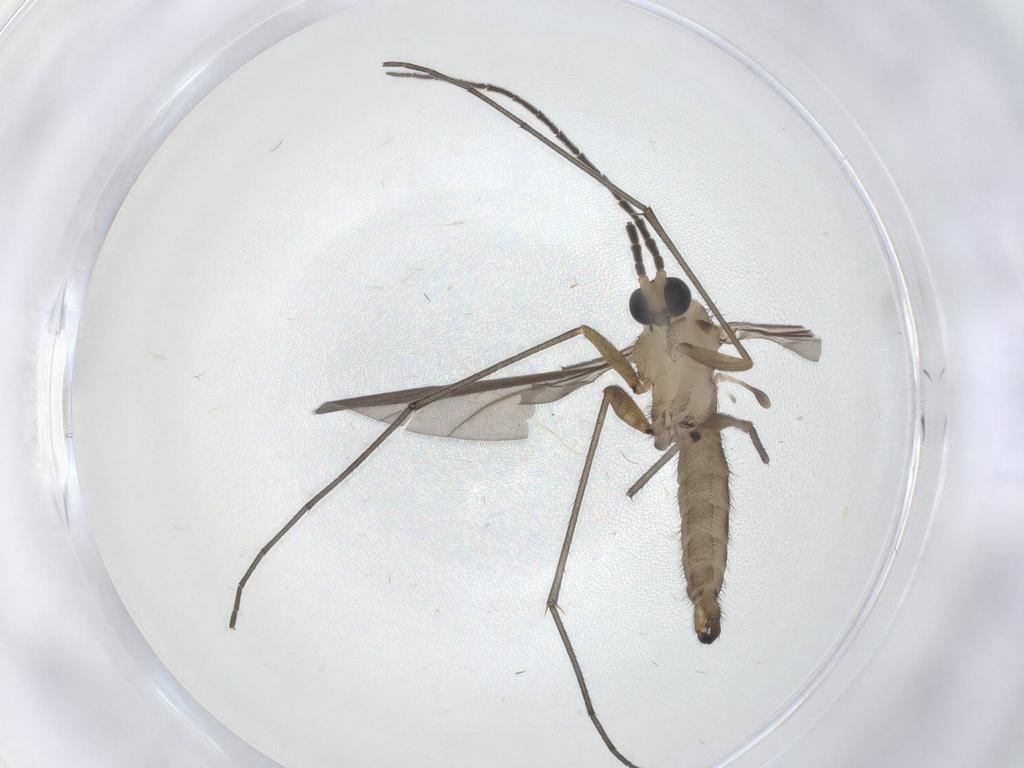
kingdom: Animalia
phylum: Arthropoda
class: Insecta
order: Diptera
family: Sciaridae
